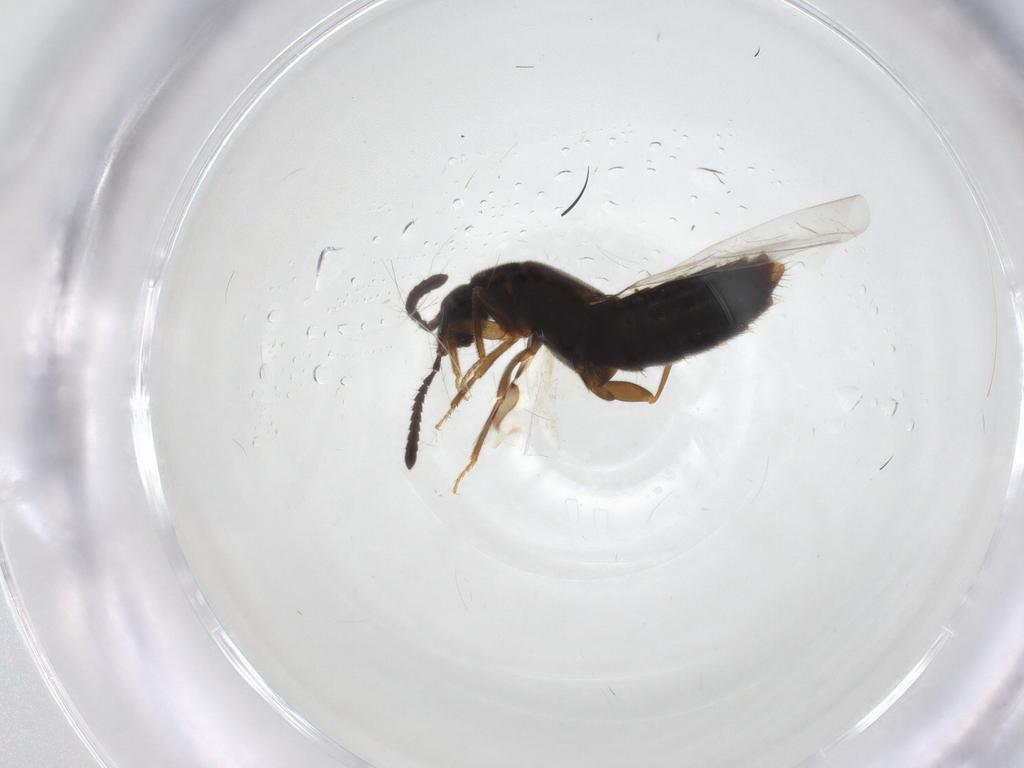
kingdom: Animalia
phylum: Arthropoda
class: Insecta
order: Coleoptera
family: Staphylinidae
